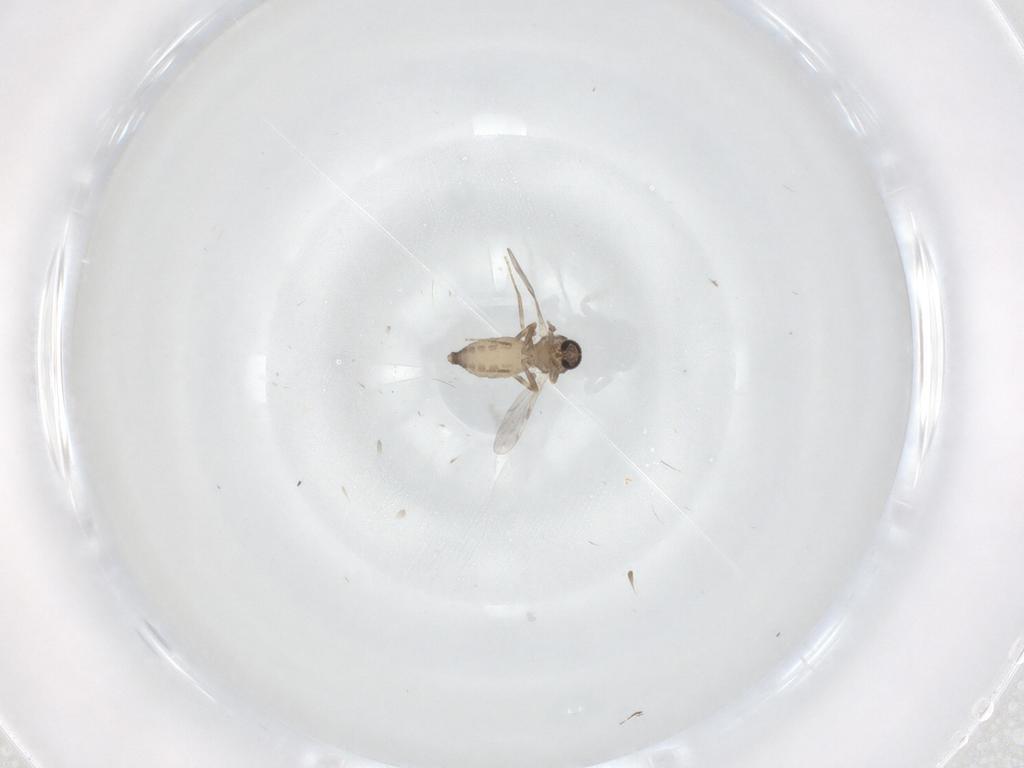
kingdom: Animalia
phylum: Arthropoda
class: Insecta
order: Diptera
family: Ceratopogonidae
